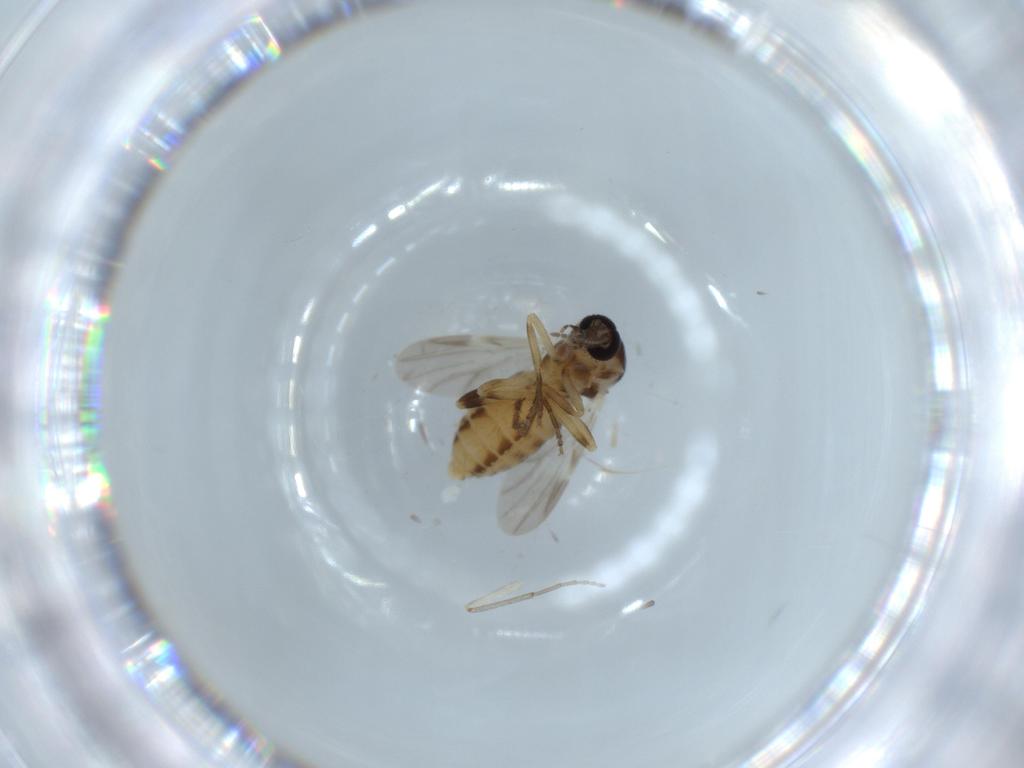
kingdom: Animalia
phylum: Arthropoda
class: Insecta
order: Diptera
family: Ceratopogonidae
